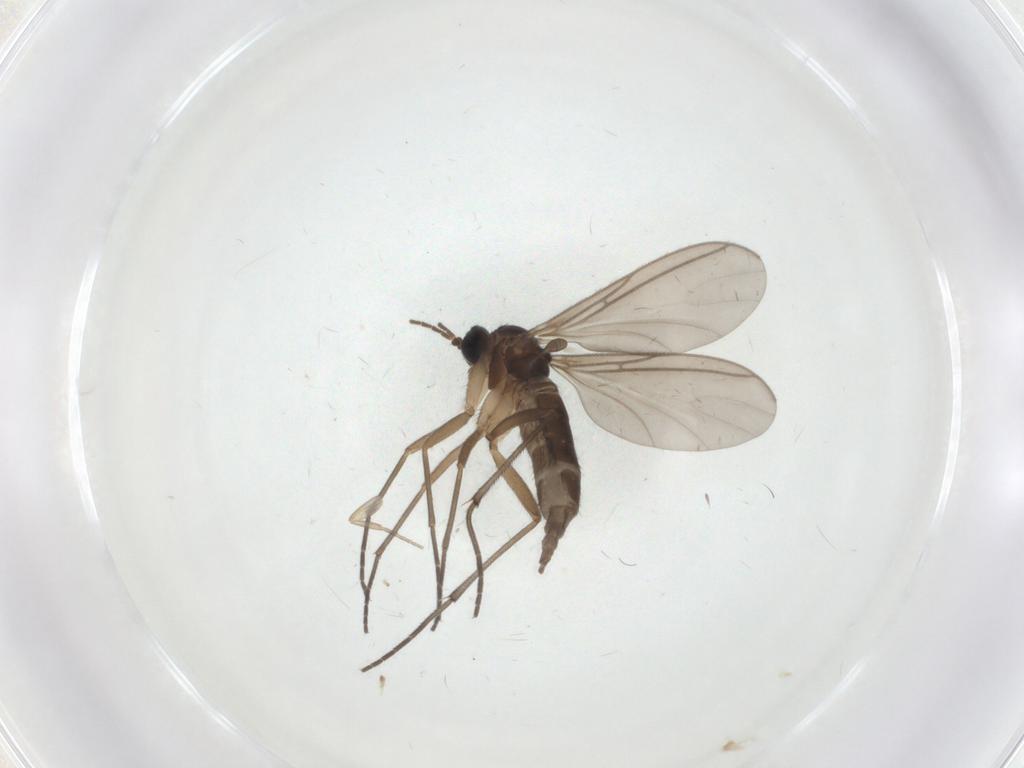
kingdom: Animalia
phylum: Arthropoda
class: Insecta
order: Diptera
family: Sciaridae
